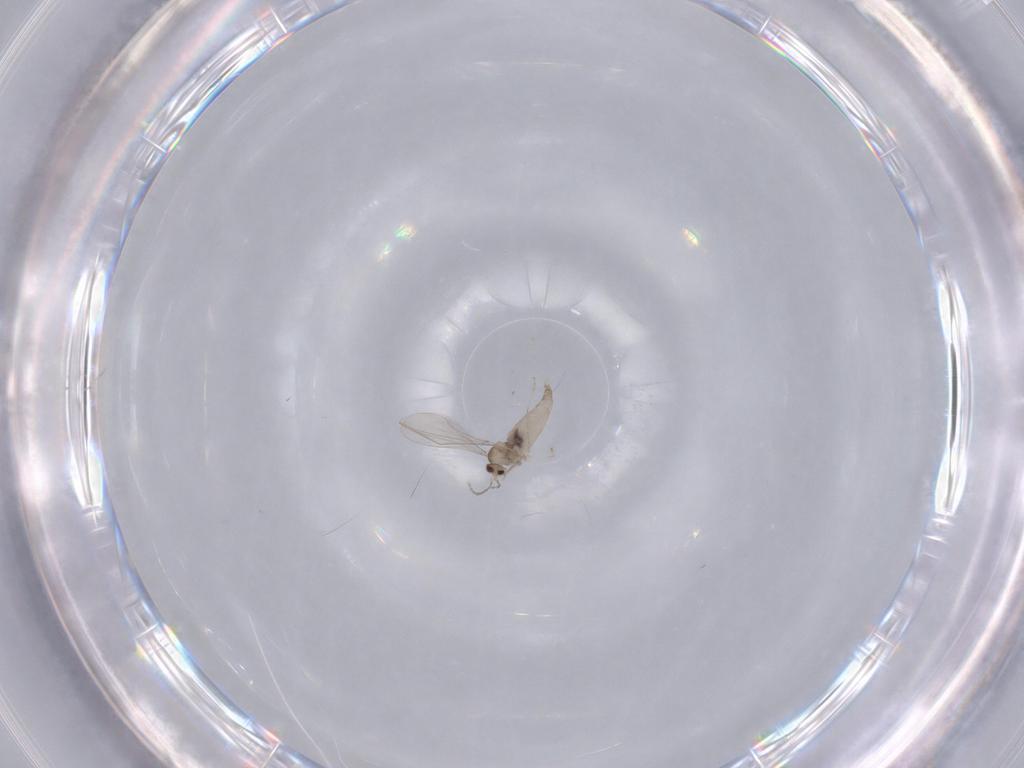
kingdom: Animalia
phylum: Arthropoda
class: Insecta
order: Diptera
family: Cecidomyiidae
